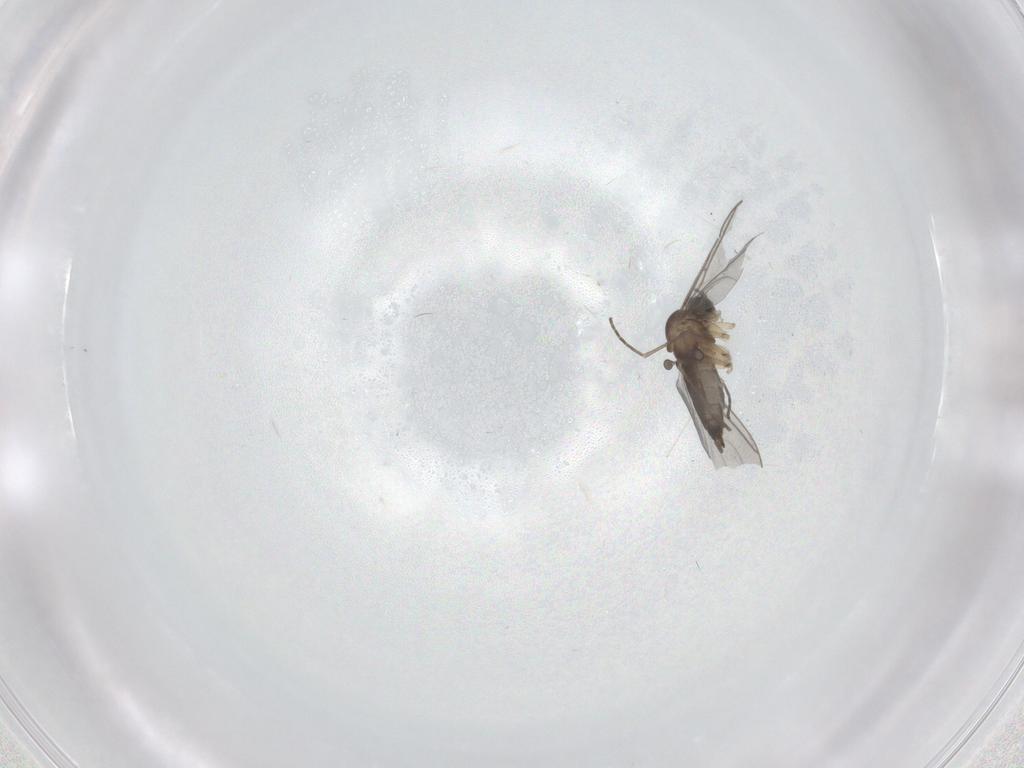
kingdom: Animalia
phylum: Arthropoda
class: Insecta
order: Diptera
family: Sciaridae
